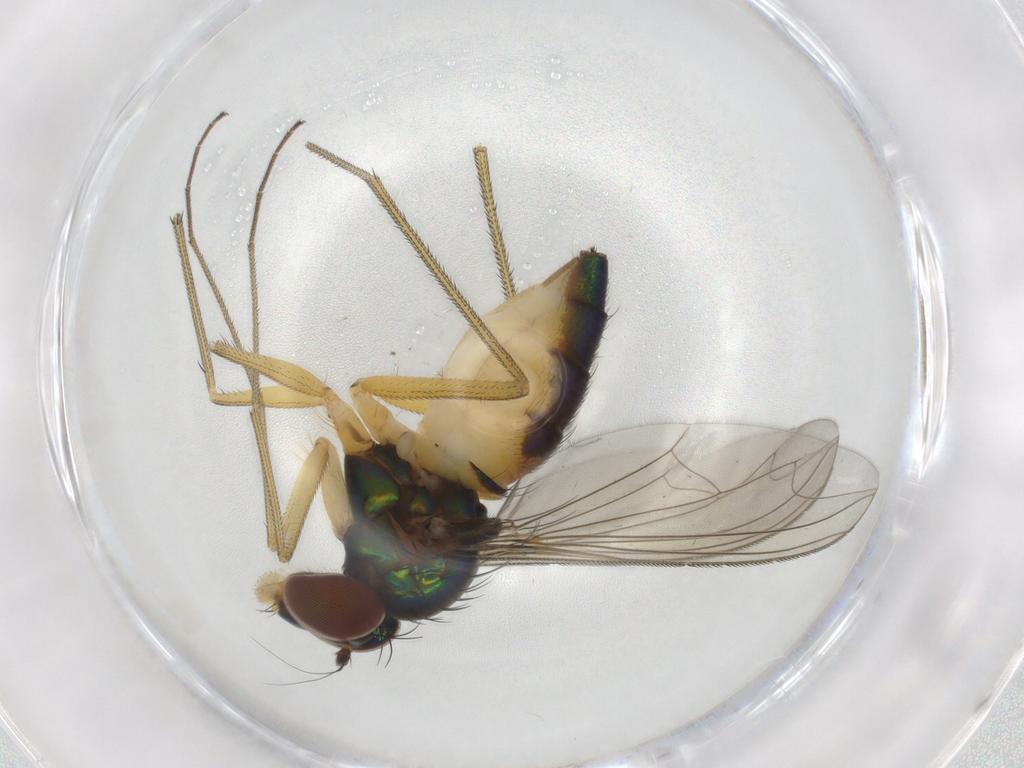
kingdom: Animalia
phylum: Arthropoda
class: Insecta
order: Diptera
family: Dolichopodidae
